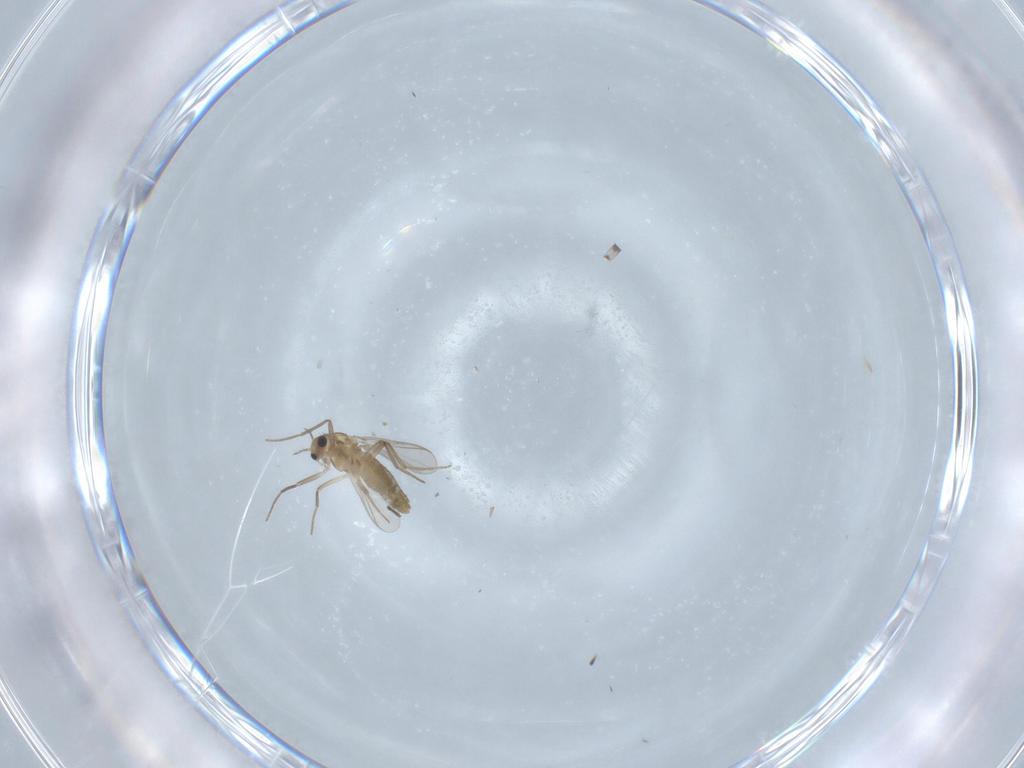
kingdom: Animalia
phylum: Arthropoda
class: Insecta
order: Diptera
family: Chironomidae
